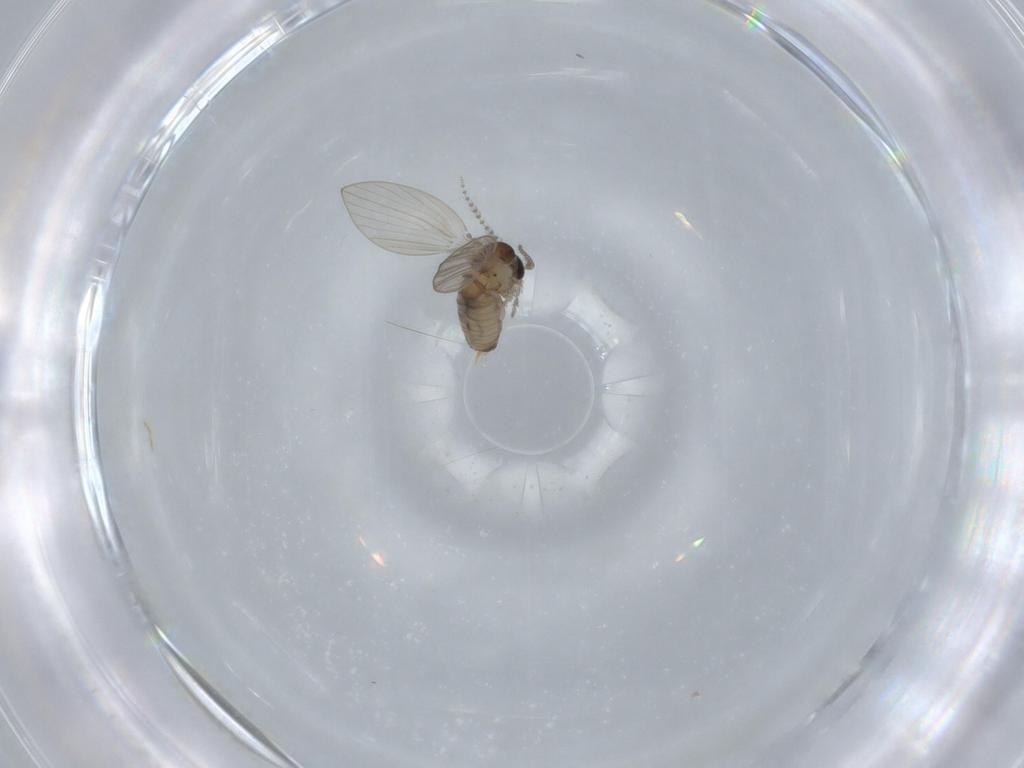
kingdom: Animalia
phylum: Arthropoda
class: Insecta
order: Diptera
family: Psychodidae
